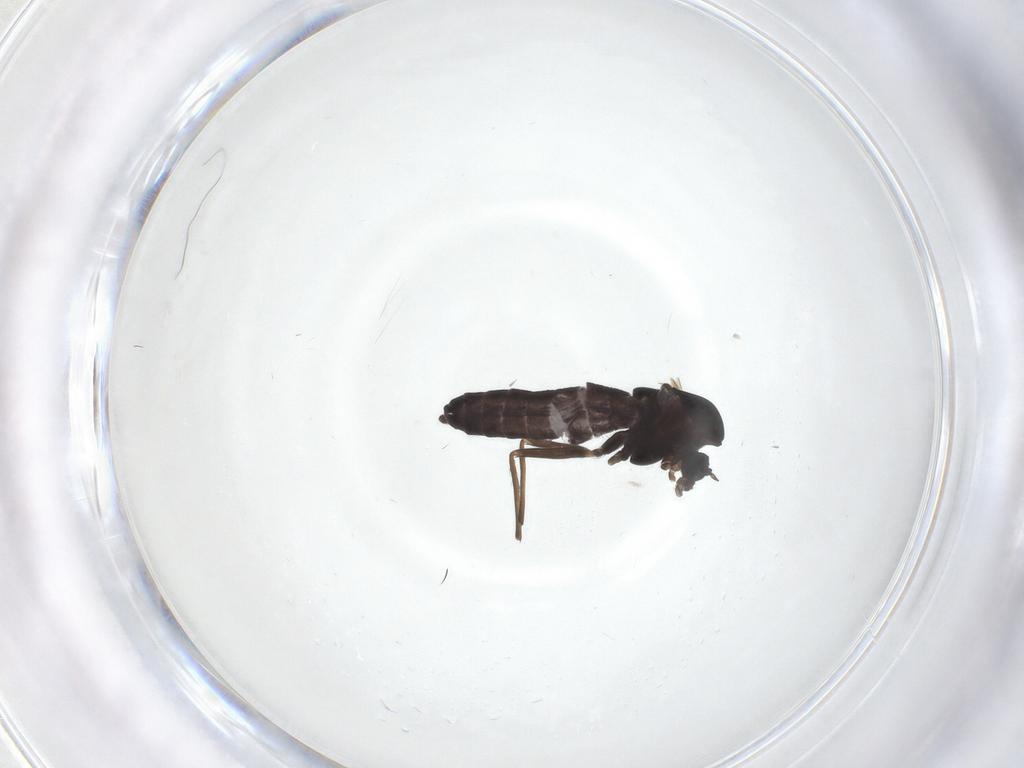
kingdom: Animalia
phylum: Arthropoda
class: Insecta
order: Diptera
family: Chironomidae
